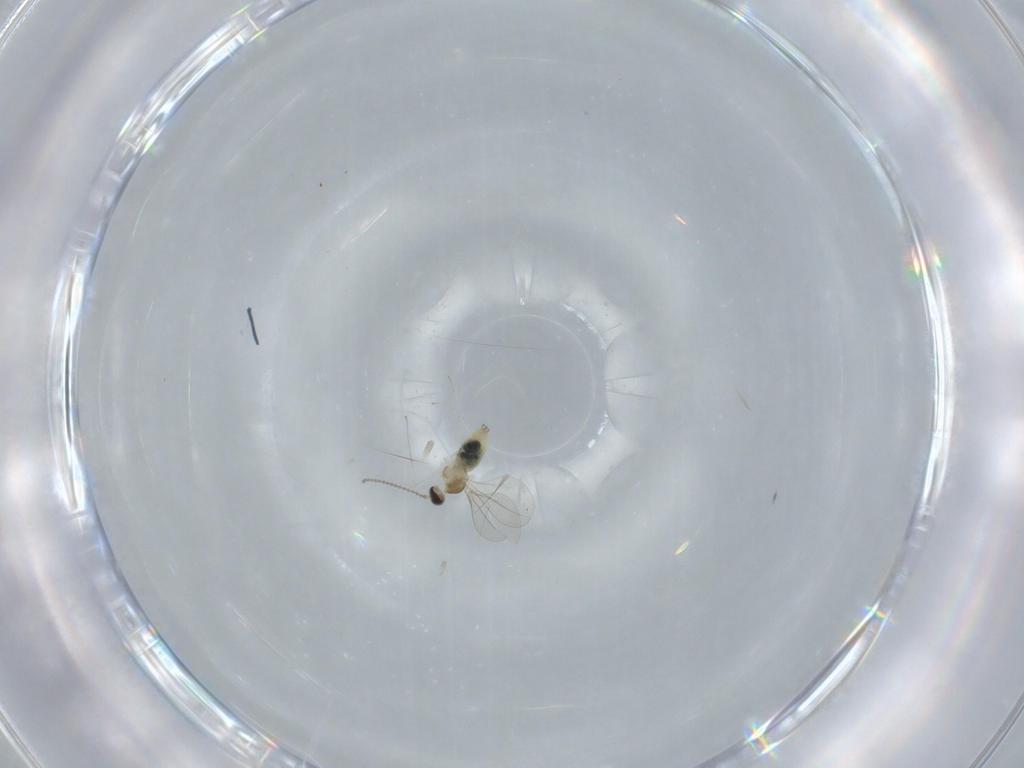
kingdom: Animalia
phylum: Arthropoda
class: Insecta
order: Diptera
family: Cecidomyiidae
